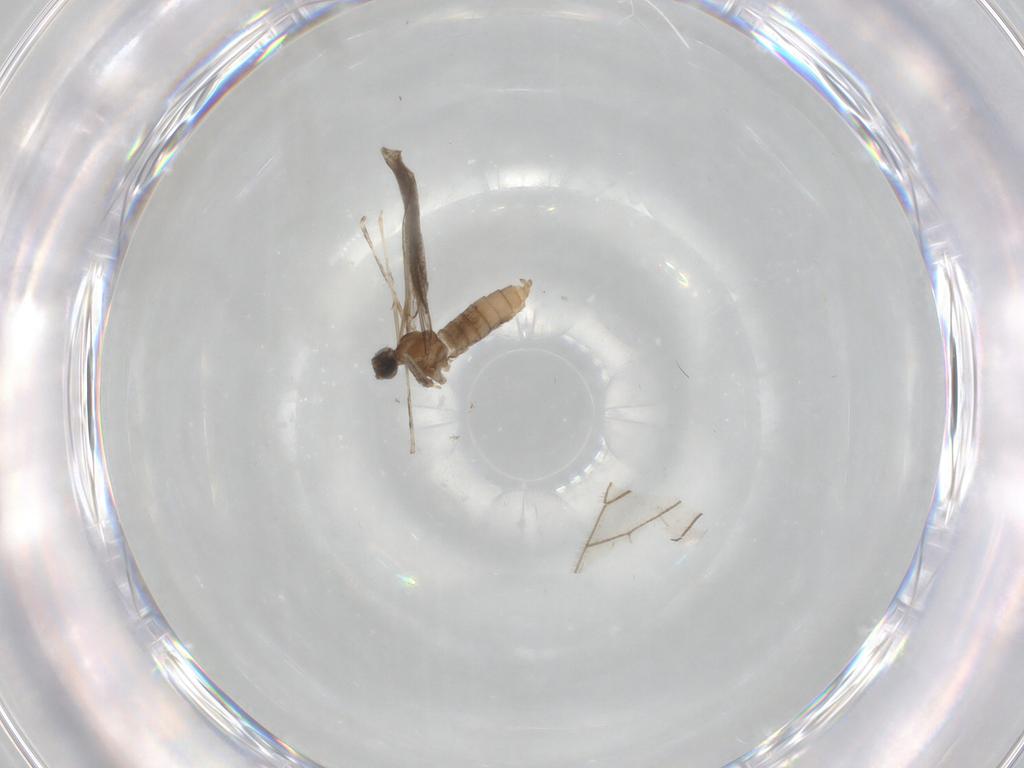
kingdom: Animalia
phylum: Arthropoda
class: Insecta
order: Diptera
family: Cecidomyiidae
